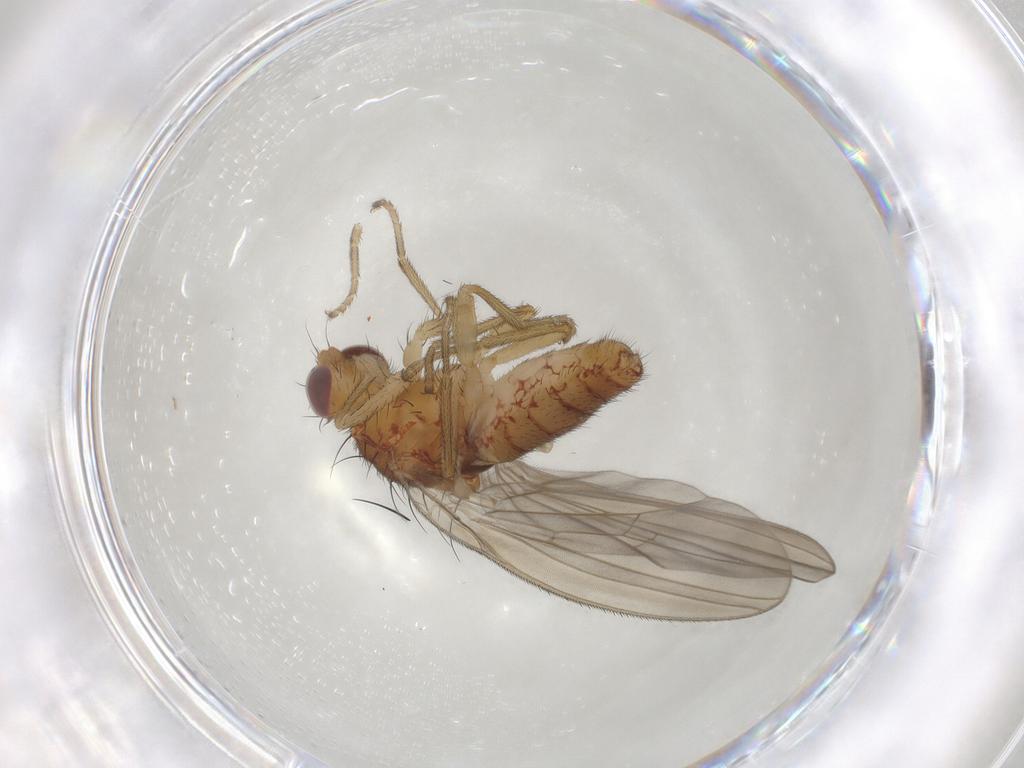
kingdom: Animalia
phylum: Arthropoda
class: Insecta
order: Diptera
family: Natalimyzidae
